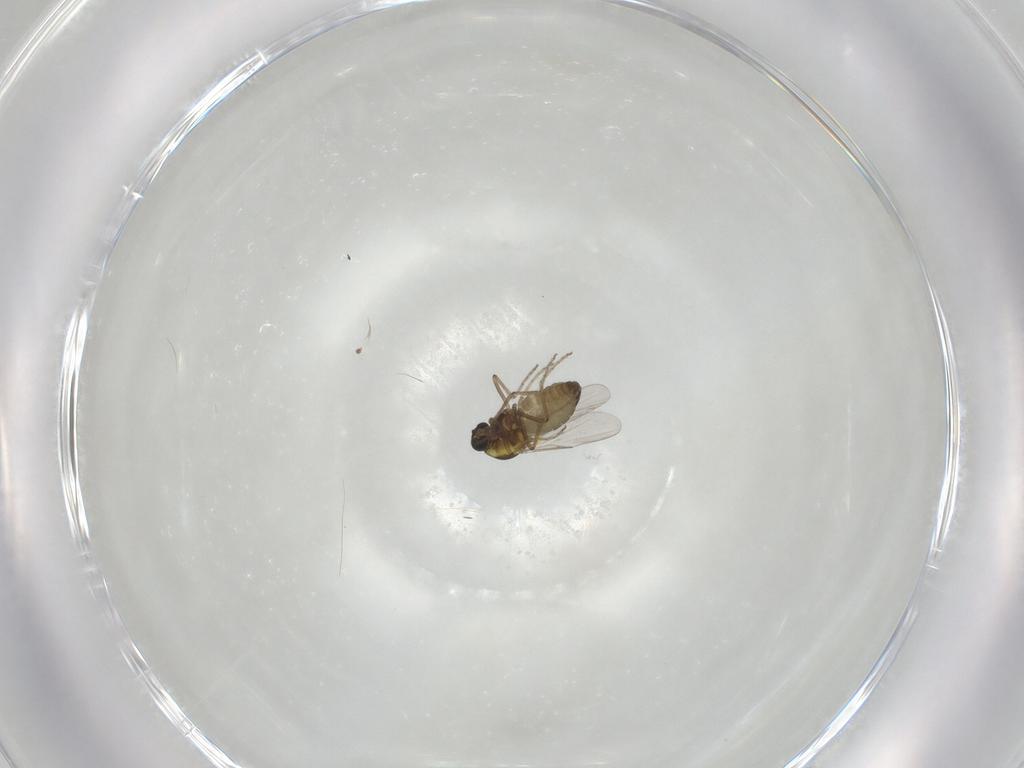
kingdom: Animalia
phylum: Arthropoda
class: Insecta
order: Diptera
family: Ceratopogonidae
